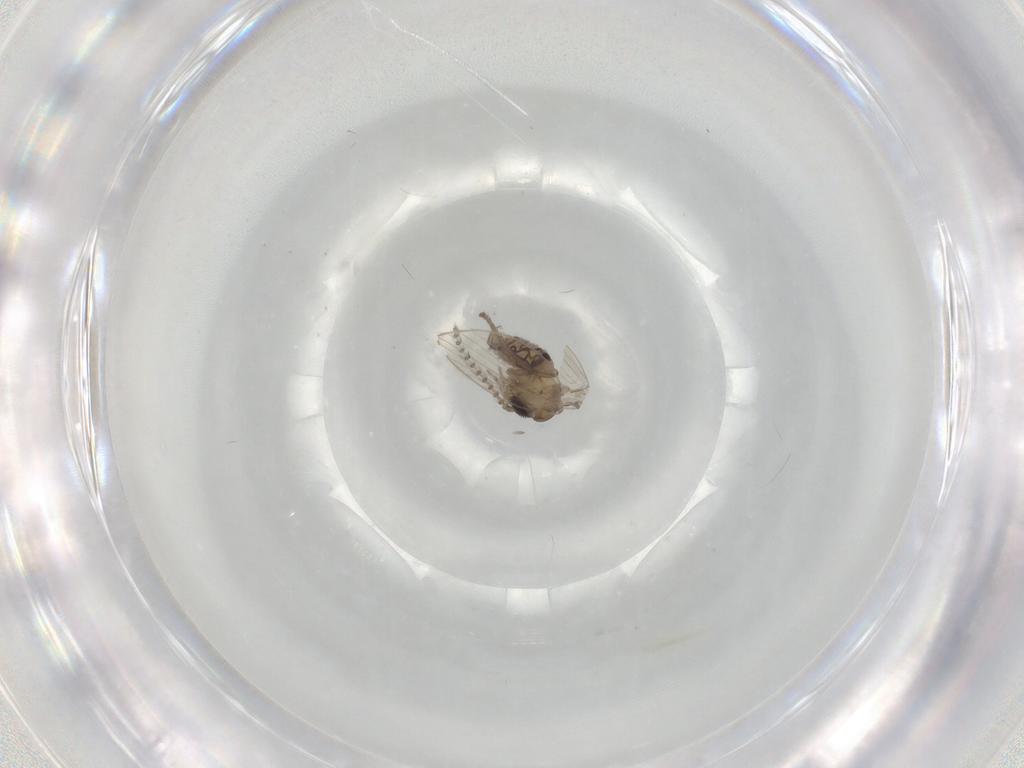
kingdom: Animalia
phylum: Arthropoda
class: Insecta
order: Diptera
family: Psychodidae
